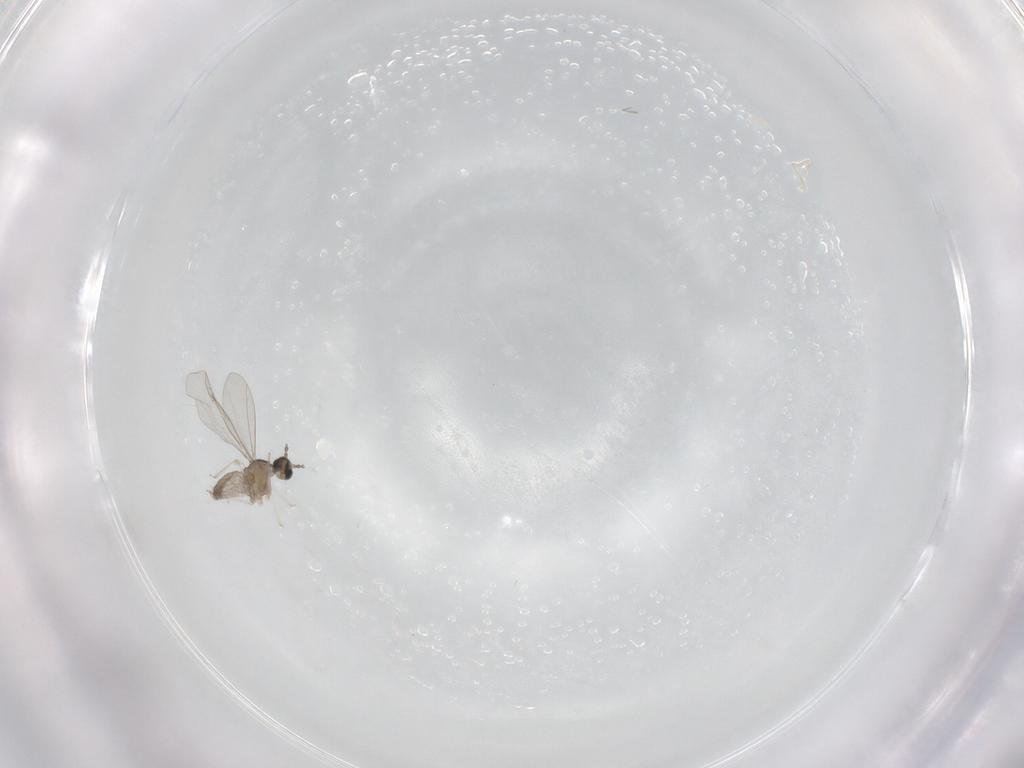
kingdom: Animalia
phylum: Arthropoda
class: Insecta
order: Diptera
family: Cecidomyiidae
